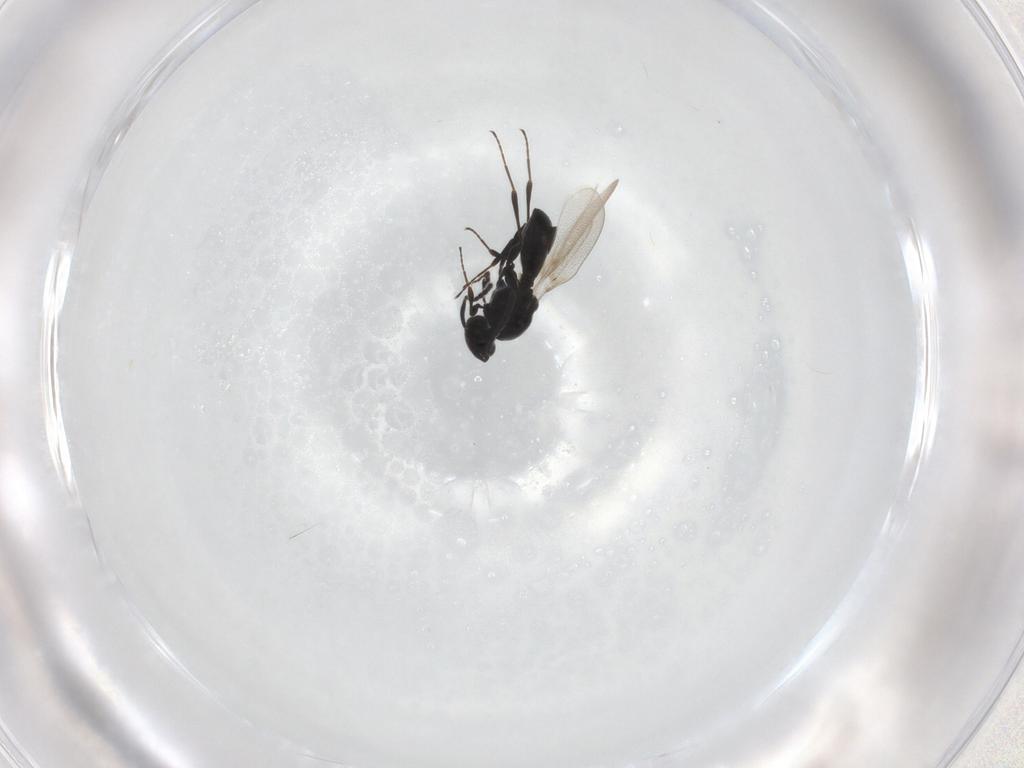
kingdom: Animalia
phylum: Arthropoda
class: Insecta
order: Hymenoptera
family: Platygastridae
